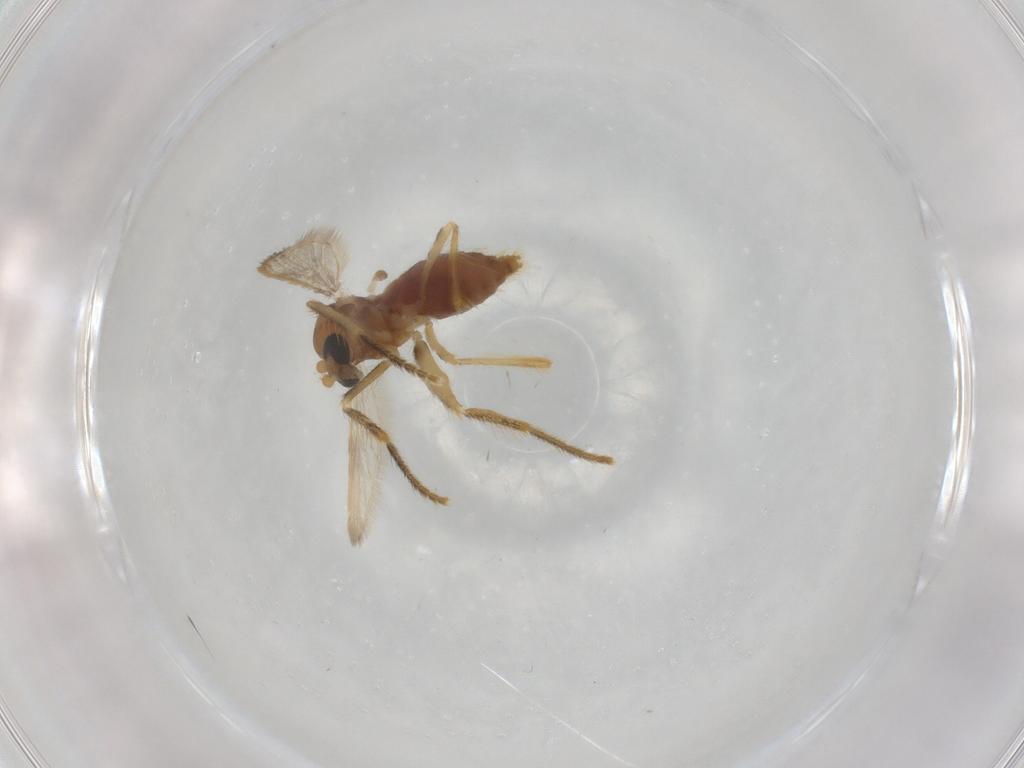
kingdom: Animalia
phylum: Arthropoda
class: Insecta
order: Diptera
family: Corethrellidae
